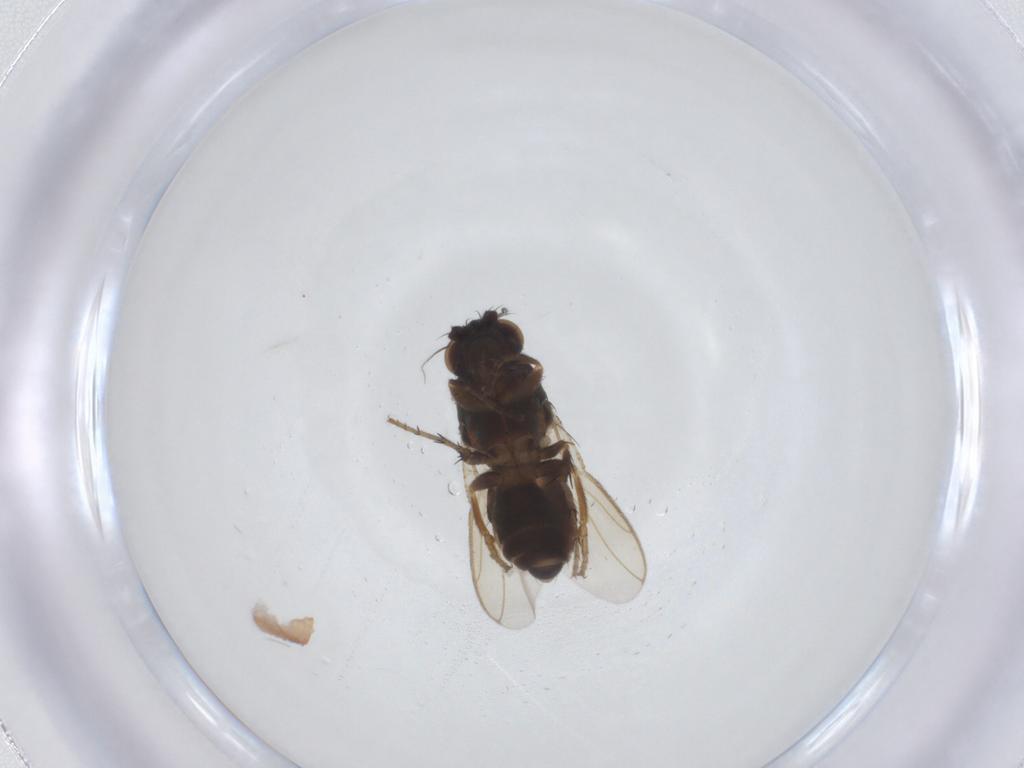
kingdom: Animalia
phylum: Arthropoda
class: Insecta
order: Diptera
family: Sphaeroceridae
